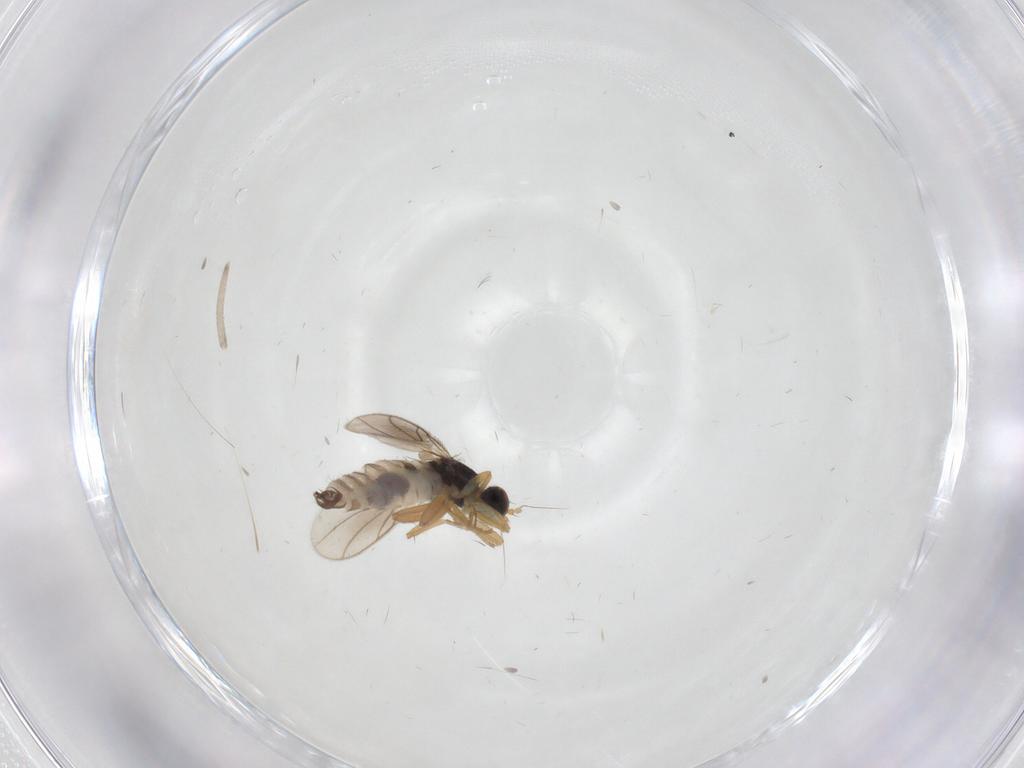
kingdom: Animalia
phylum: Arthropoda
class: Insecta
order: Diptera
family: Hybotidae
